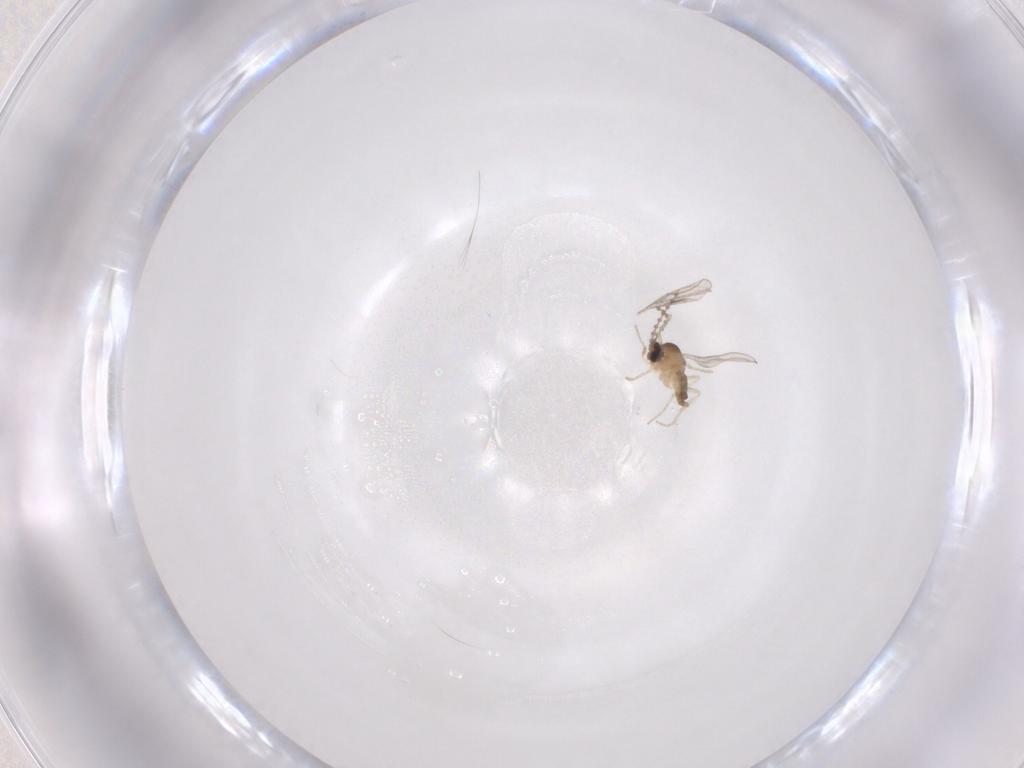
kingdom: Animalia
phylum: Arthropoda
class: Insecta
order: Diptera
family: Cecidomyiidae
